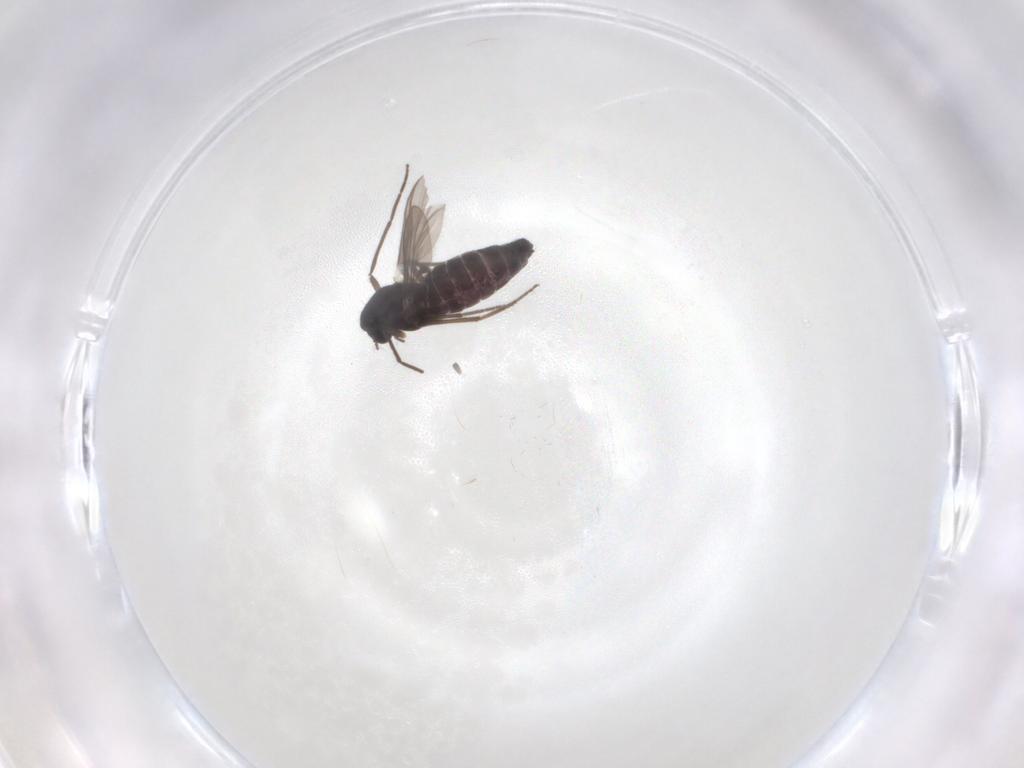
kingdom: Animalia
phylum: Arthropoda
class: Insecta
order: Diptera
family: Chironomidae
